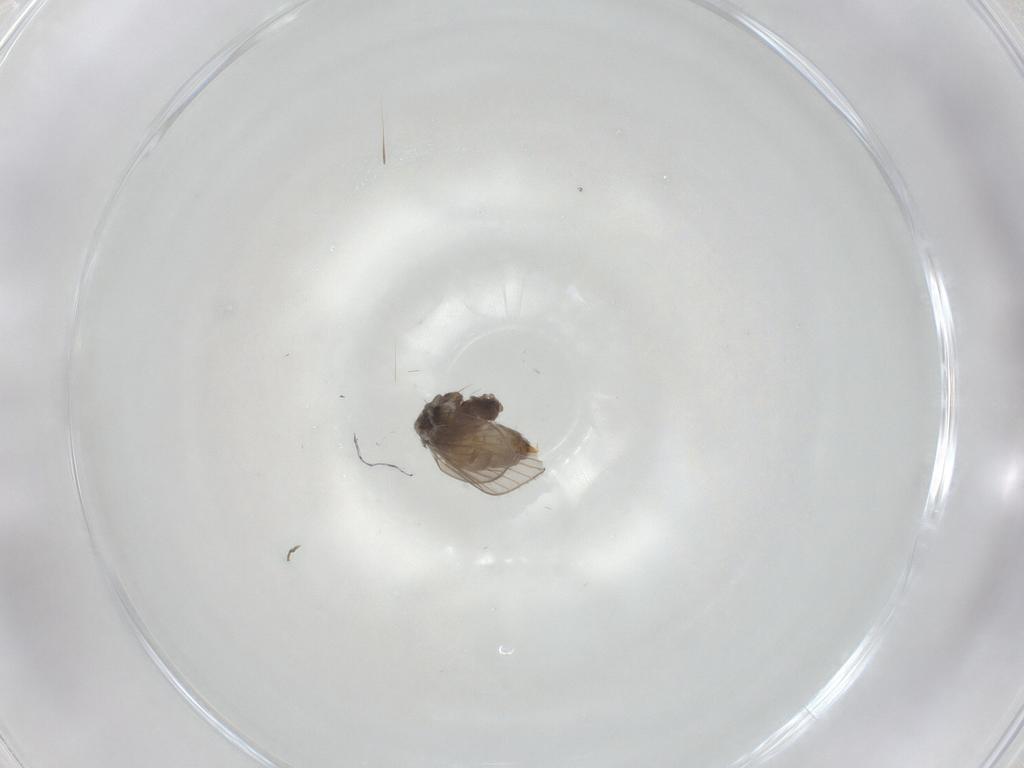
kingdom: Animalia
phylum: Arthropoda
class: Insecta
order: Diptera
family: Psychodidae
